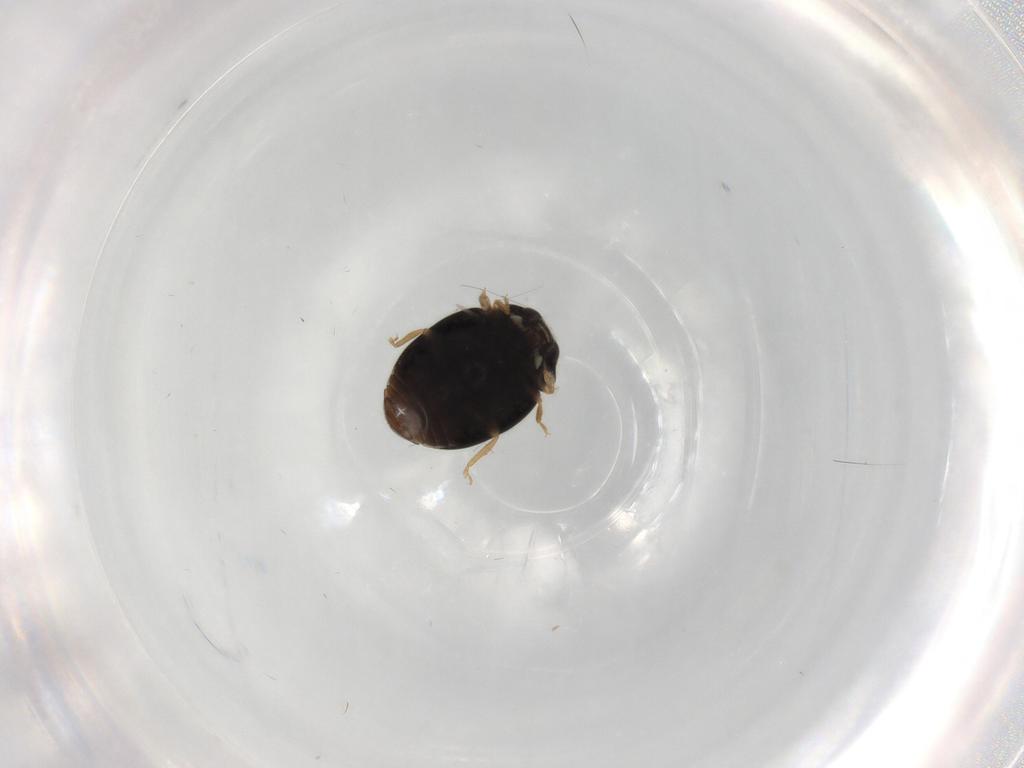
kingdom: Animalia
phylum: Arthropoda
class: Insecta
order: Coleoptera
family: Coccinellidae
